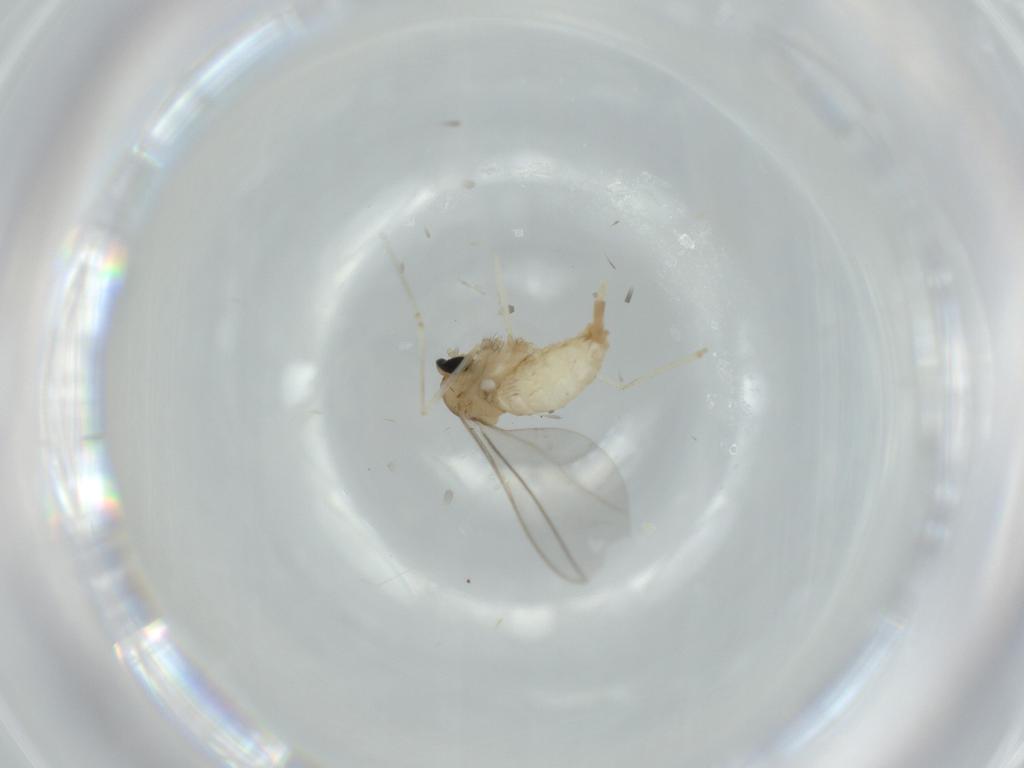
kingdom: Animalia
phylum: Arthropoda
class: Insecta
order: Diptera
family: Cecidomyiidae
